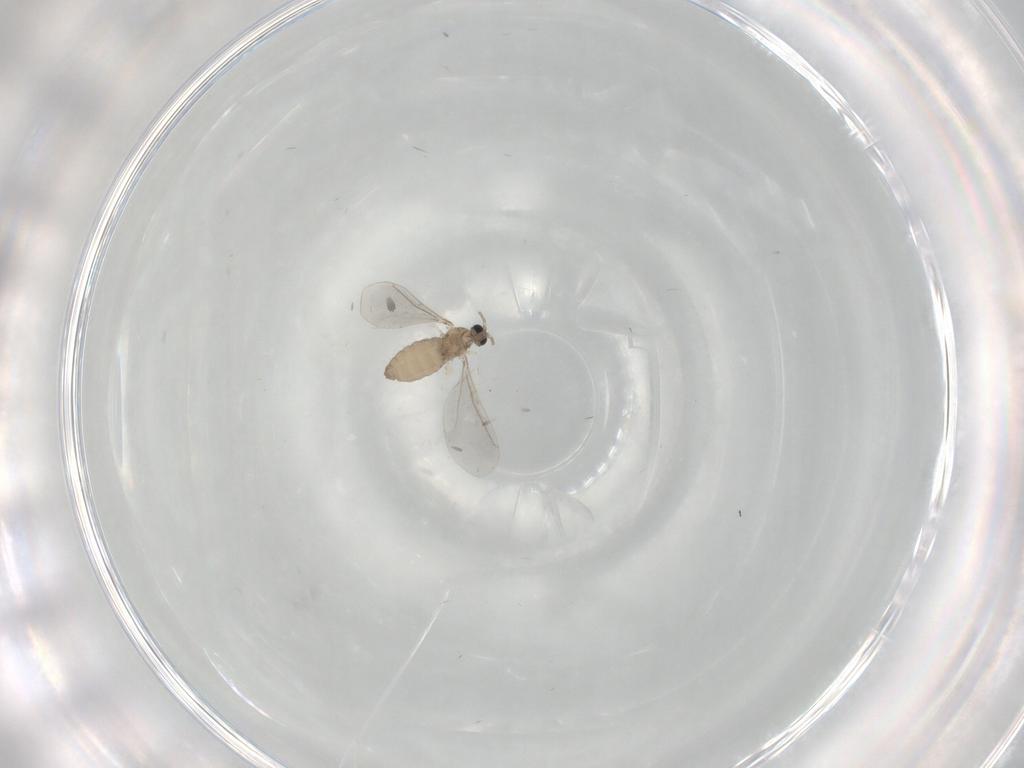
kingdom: Animalia
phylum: Arthropoda
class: Insecta
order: Diptera
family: Cecidomyiidae
